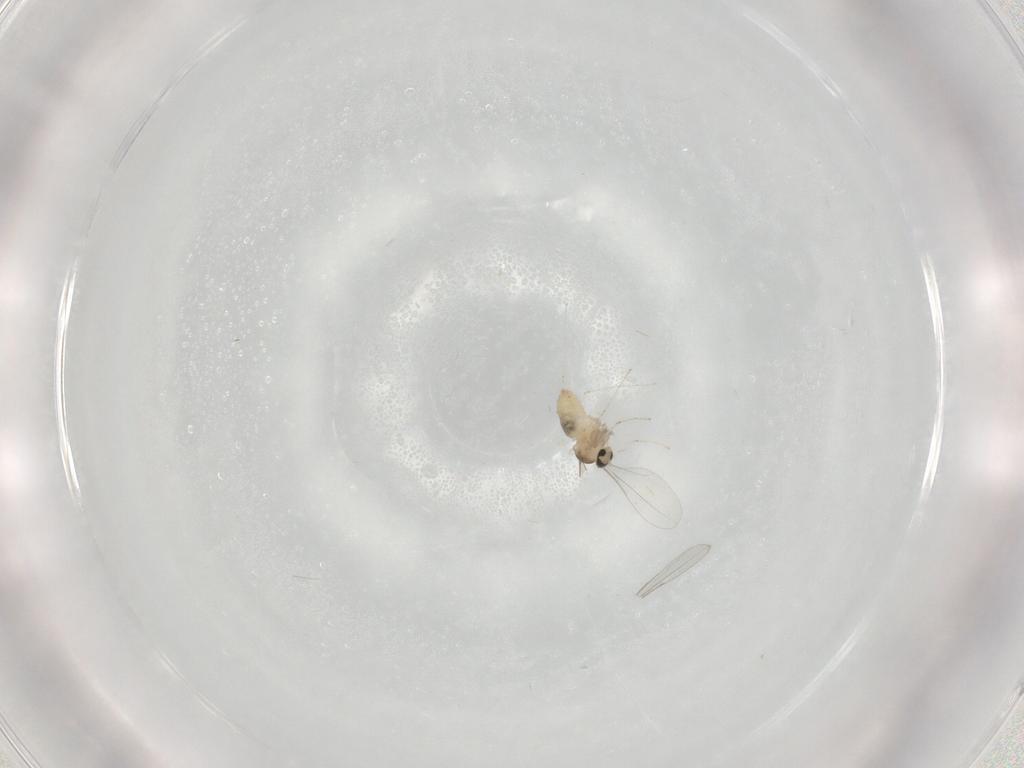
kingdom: Animalia
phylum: Arthropoda
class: Insecta
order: Diptera
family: Cecidomyiidae
